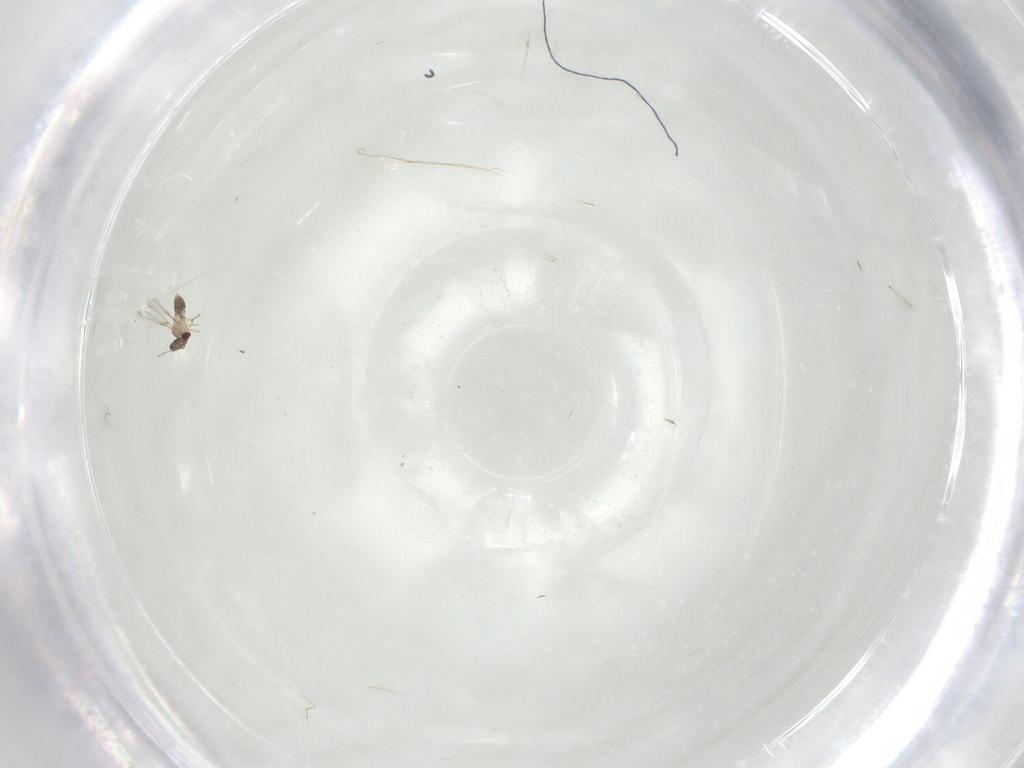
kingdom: Animalia
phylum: Arthropoda
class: Insecta
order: Hymenoptera
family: Mymaridae
